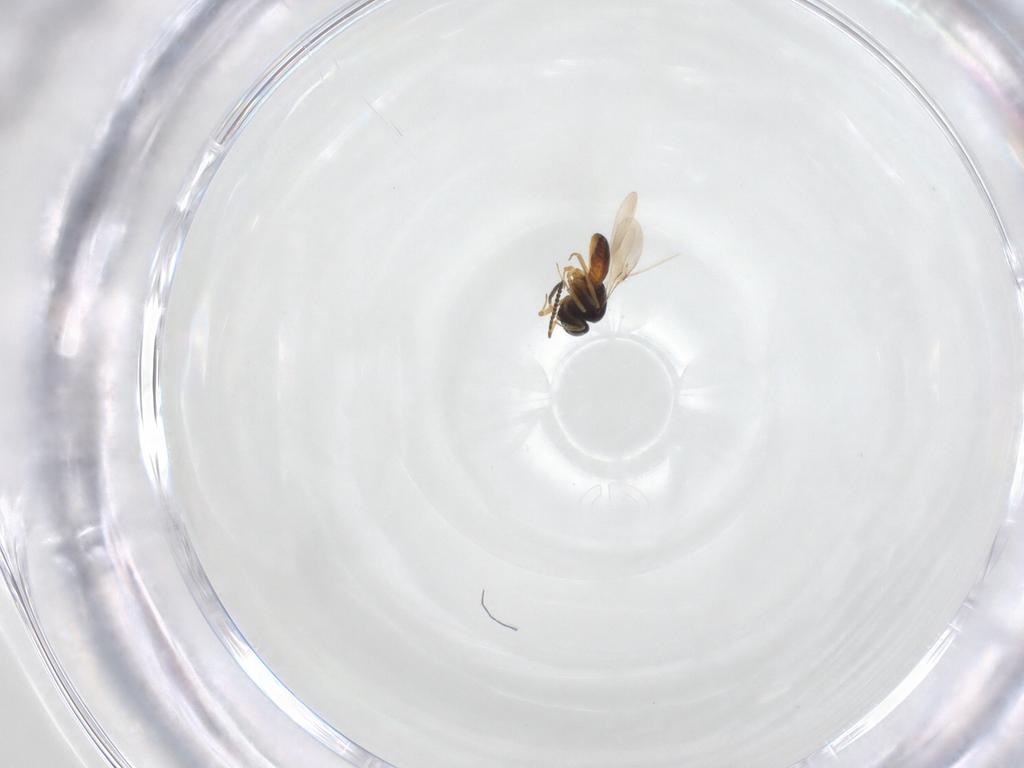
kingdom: Animalia
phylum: Arthropoda
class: Insecta
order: Hymenoptera
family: Scelionidae
